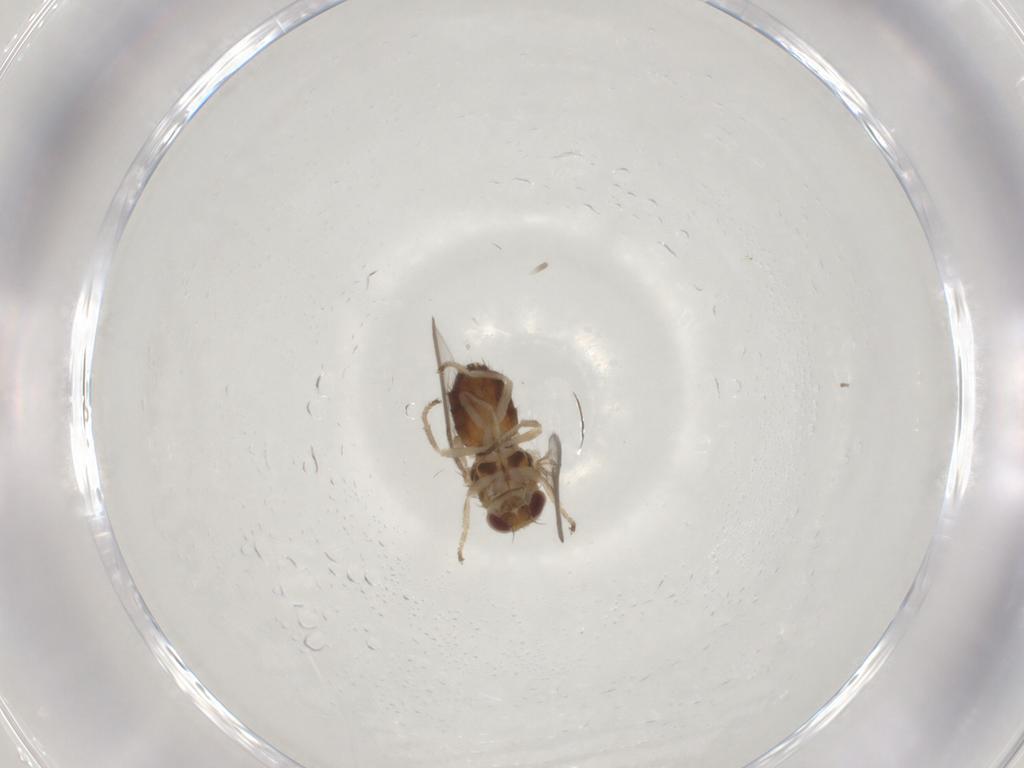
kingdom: Animalia
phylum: Arthropoda
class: Insecta
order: Diptera
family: Chloropidae
